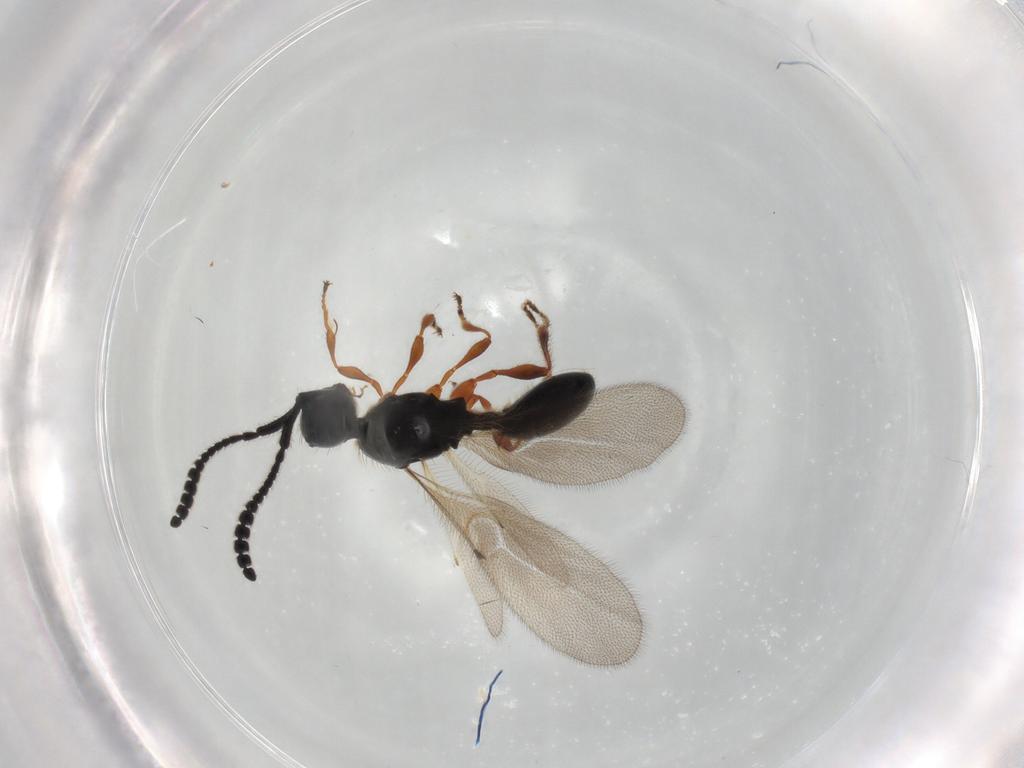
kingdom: Animalia
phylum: Arthropoda
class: Insecta
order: Hymenoptera
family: Diapriidae
